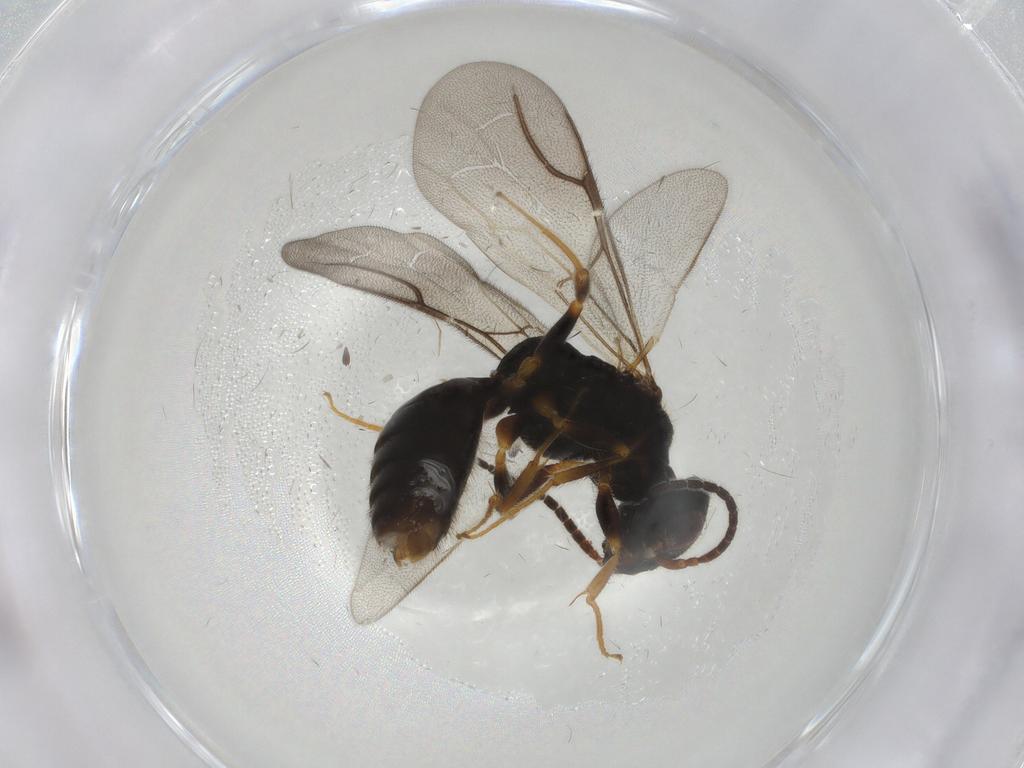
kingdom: Animalia
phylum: Arthropoda
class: Insecta
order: Hymenoptera
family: Bethylidae
